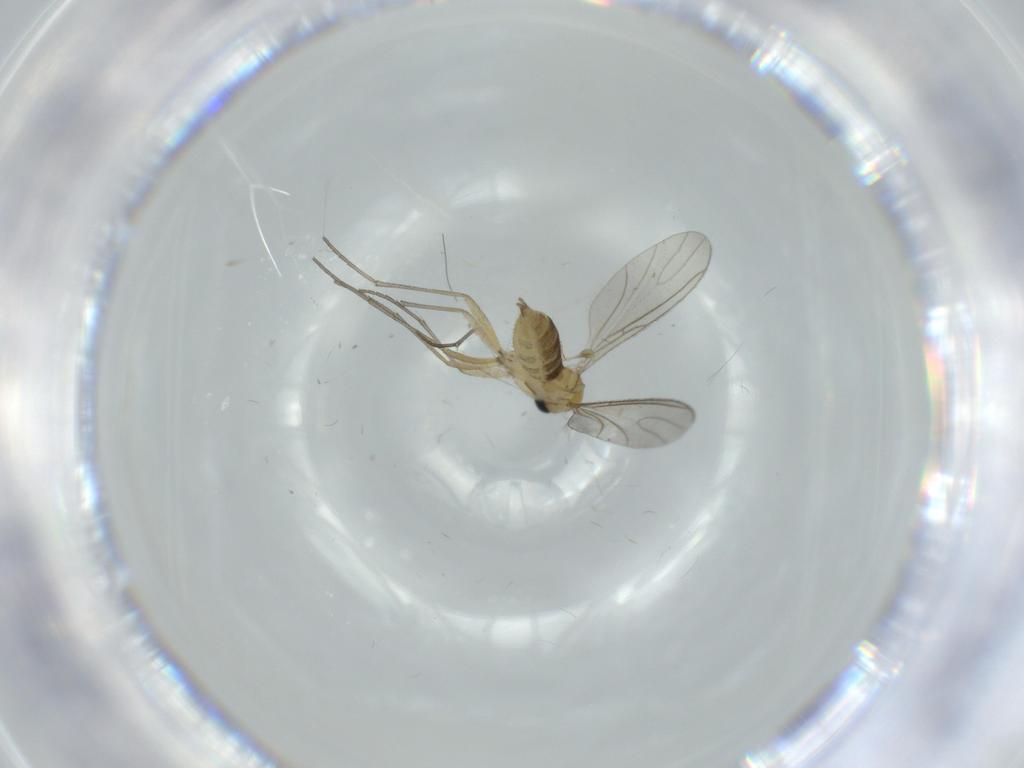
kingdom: Animalia
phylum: Arthropoda
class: Insecta
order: Diptera
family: Sciaridae
